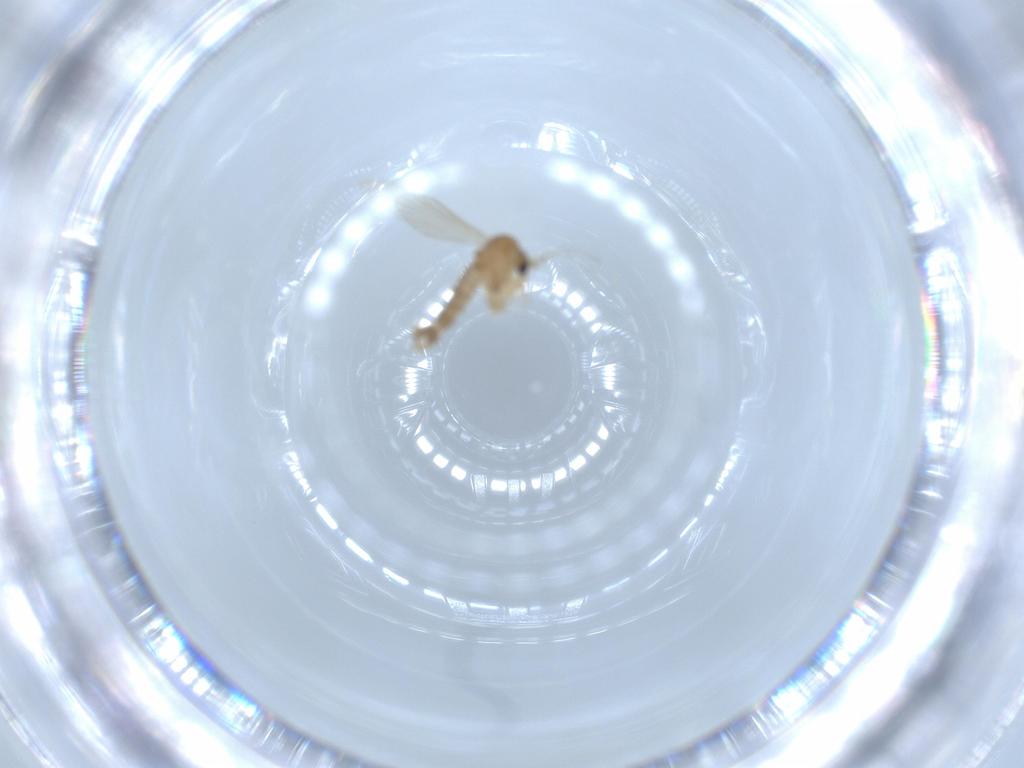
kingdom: Animalia
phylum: Arthropoda
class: Insecta
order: Diptera
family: Psychodidae
